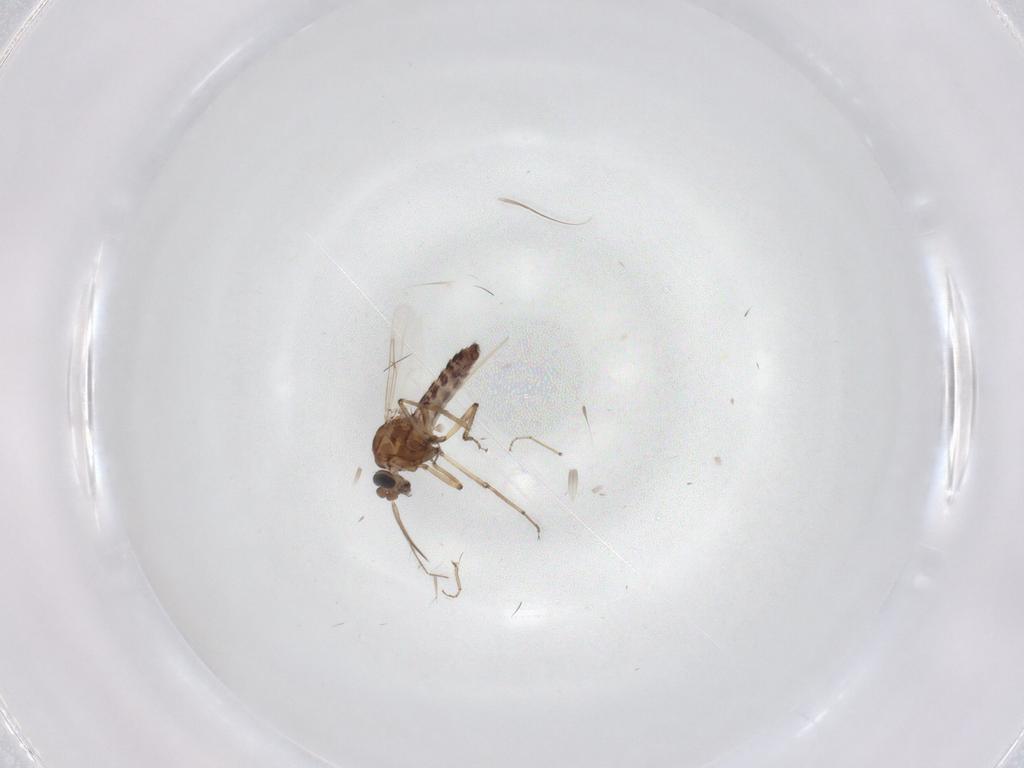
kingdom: Animalia
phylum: Arthropoda
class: Insecta
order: Diptera
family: Ceratopogonidae
